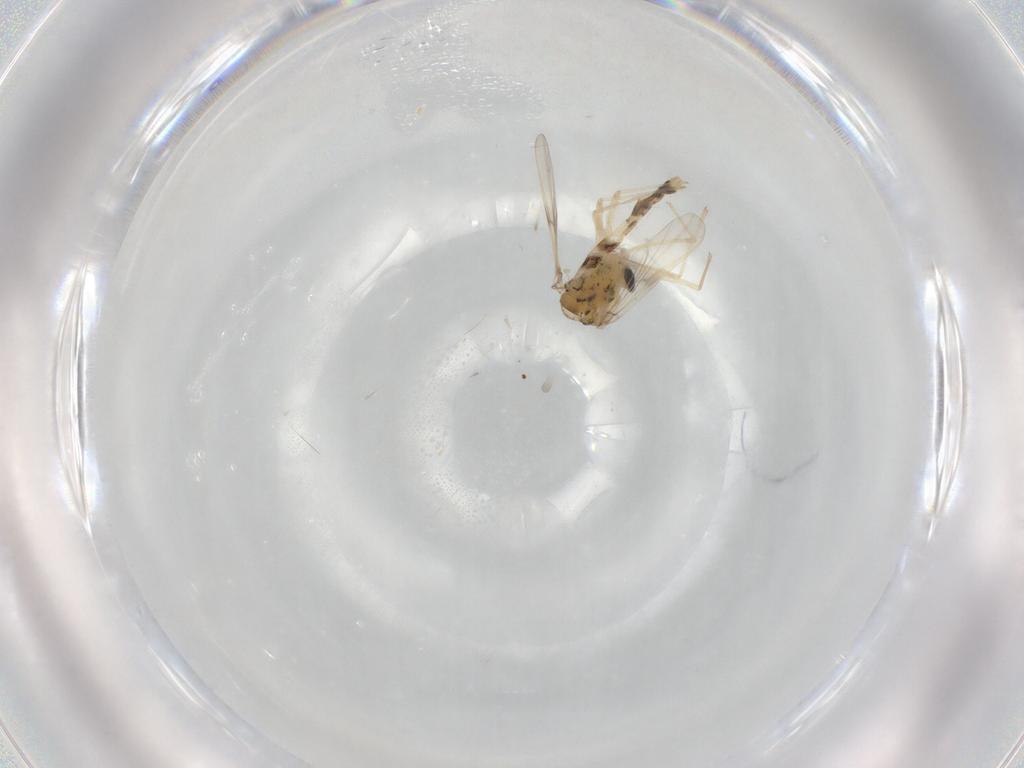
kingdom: Animalia
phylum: Arthropoda
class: Insecta
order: Diptera
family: Chironomidae
